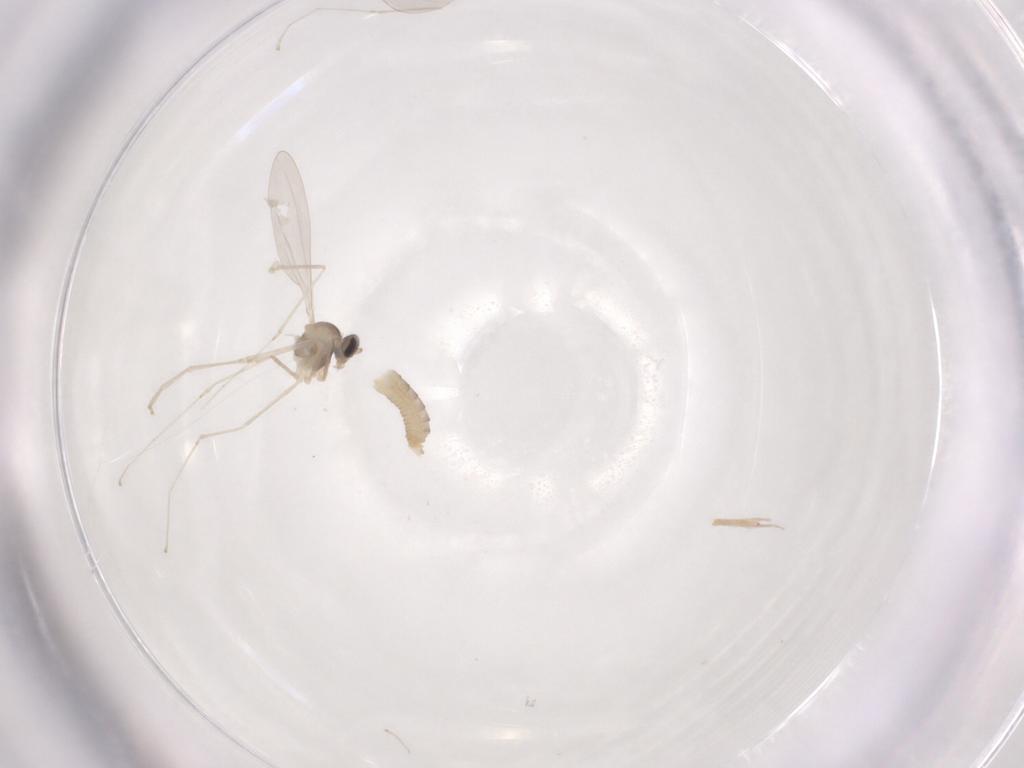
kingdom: Animalia
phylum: Arthropoda
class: Insecta
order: Diptera
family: Cecidomyiidae
